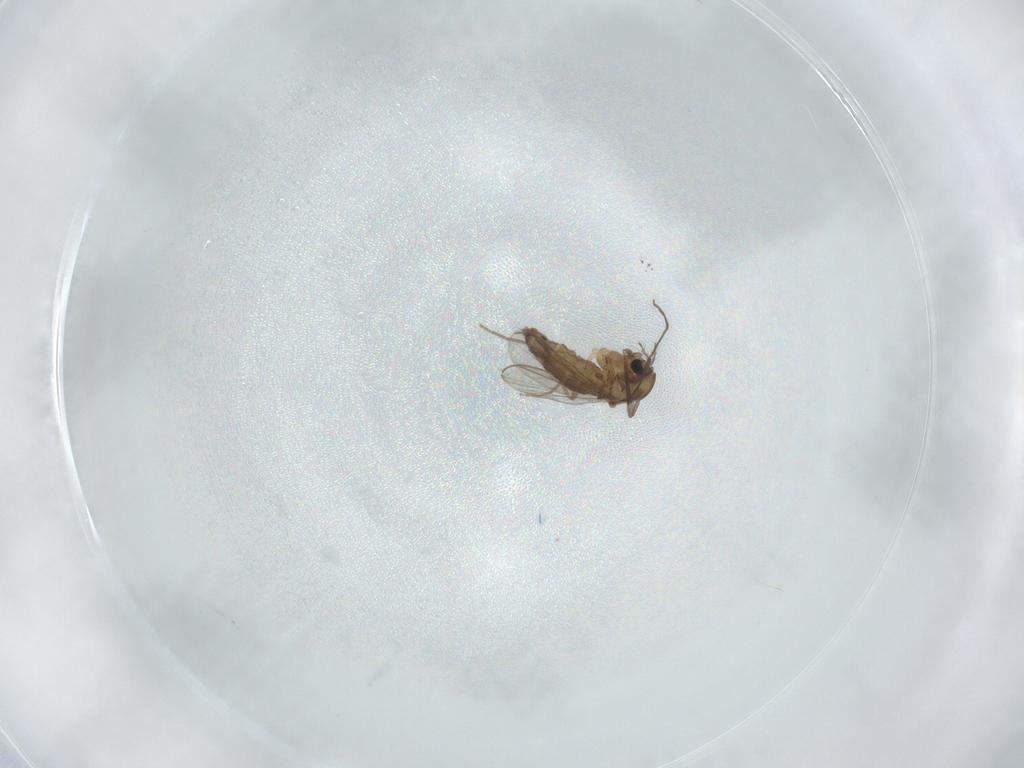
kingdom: Animalia
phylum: Arthropoda
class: Insecta
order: Diptera
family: Chironomidae
